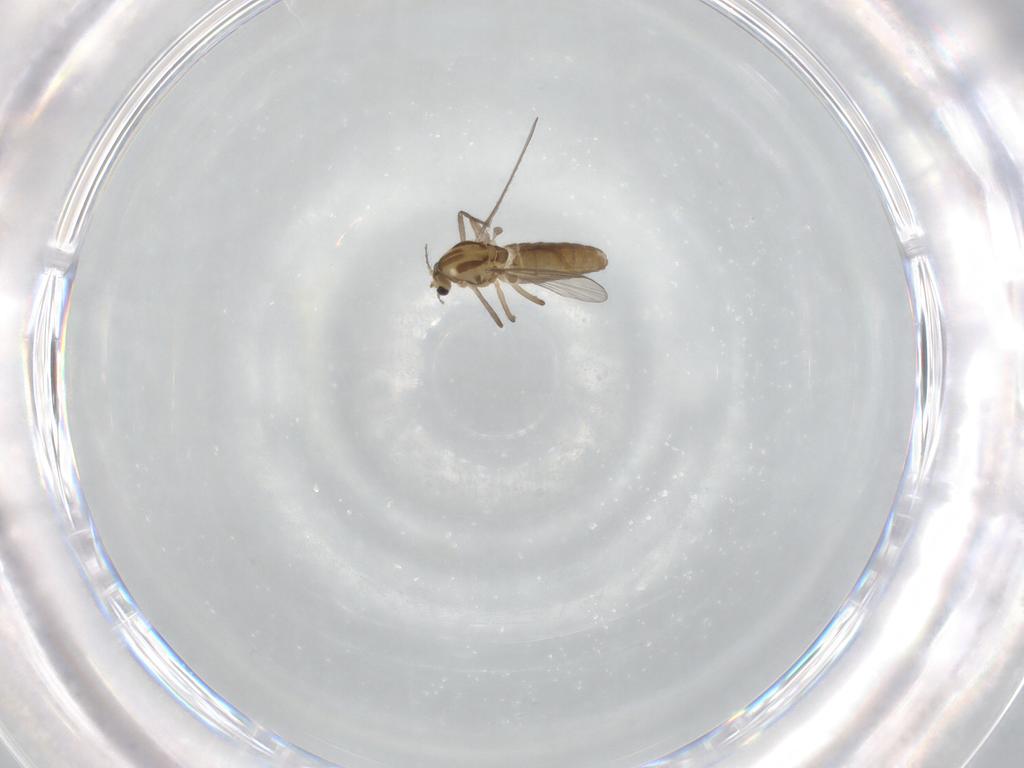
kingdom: Animalia
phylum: Arthropoda
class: Insecta
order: Diptera
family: Chironomidae
